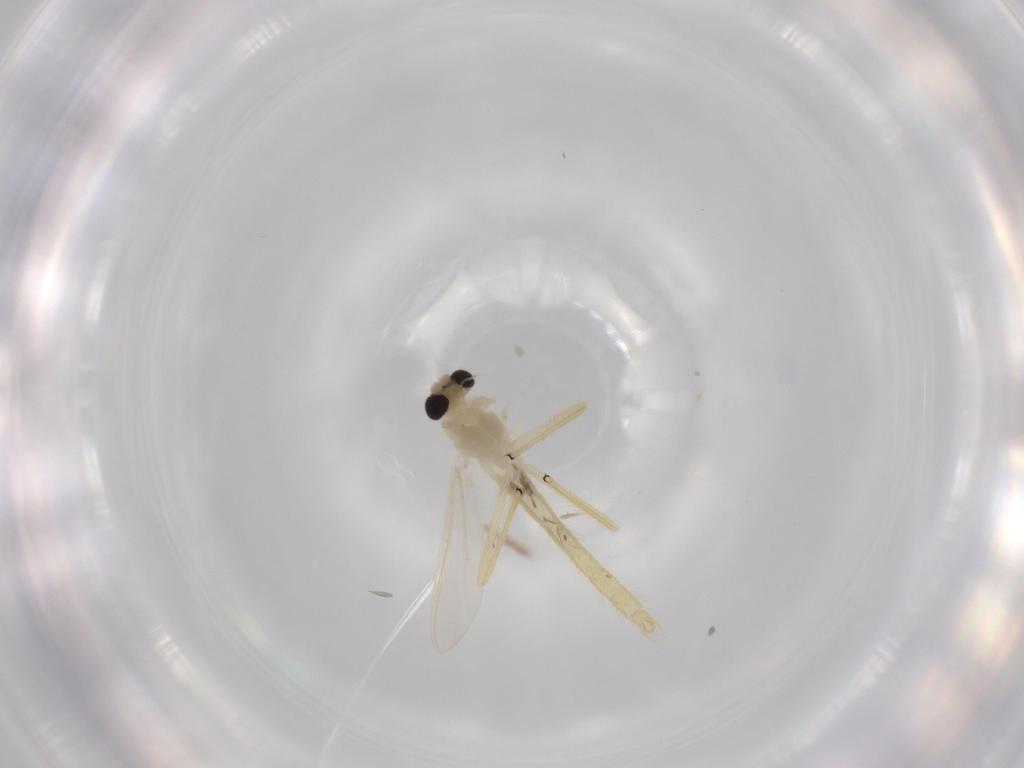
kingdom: Animalia
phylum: Arthropoda
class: Insecta
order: Diptera
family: Chironomidae
